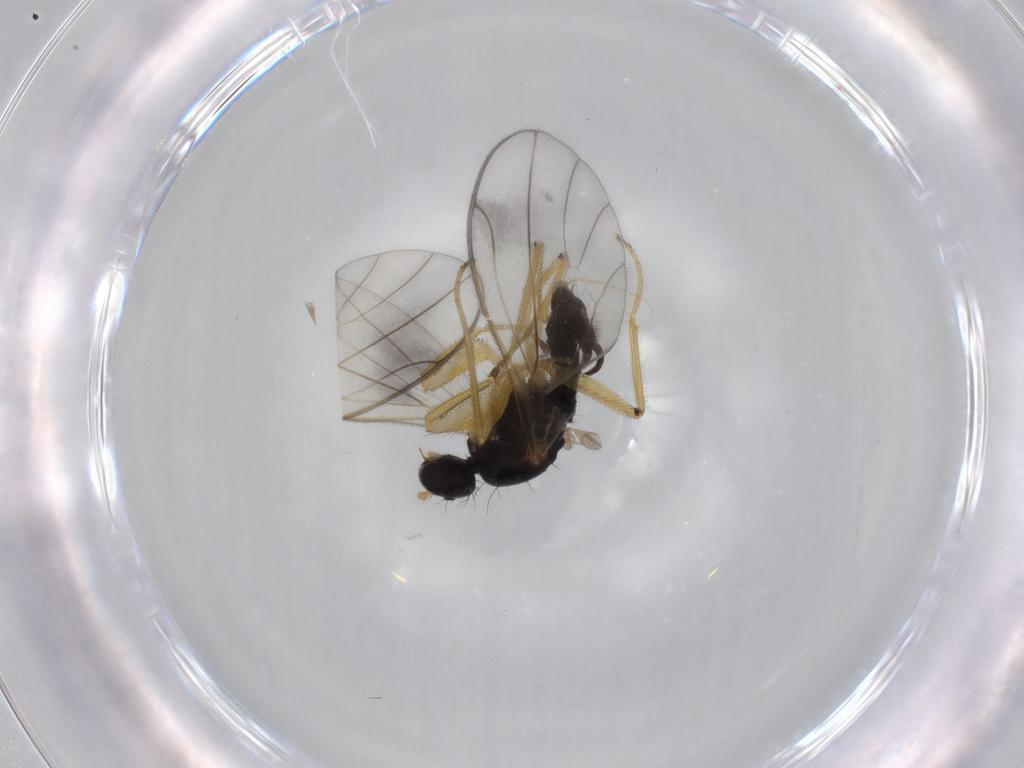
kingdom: Animalia
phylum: Arthropoda
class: Insecta
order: Diptera
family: Empididae
